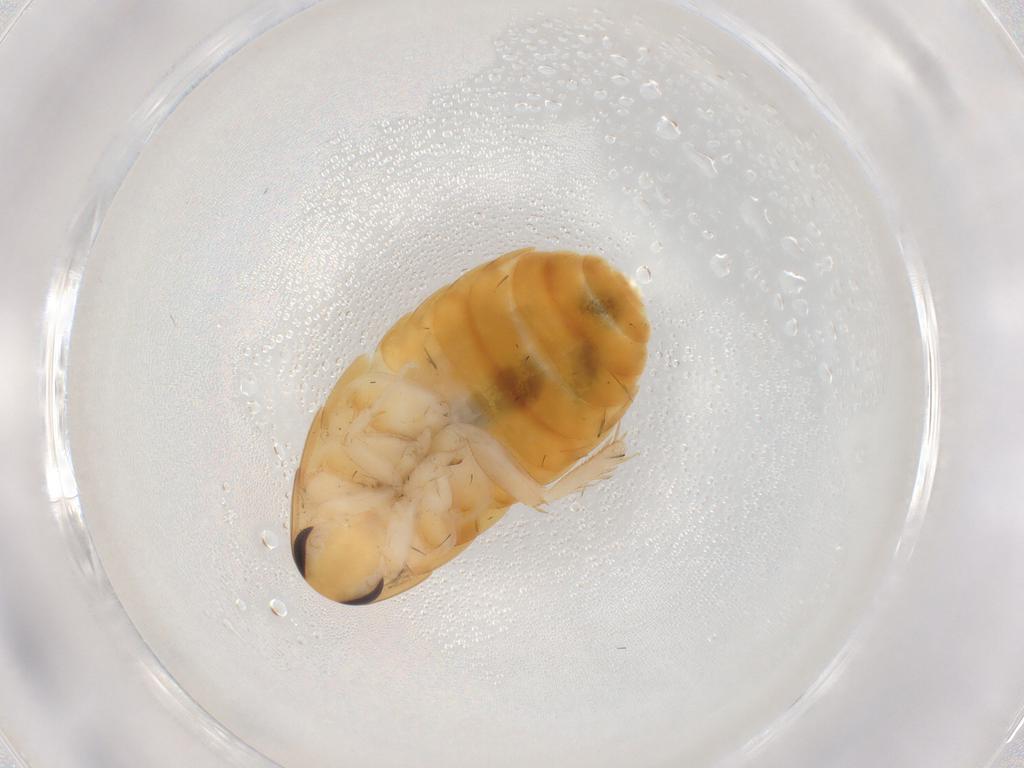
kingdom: Animalia
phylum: Arthropoda
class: Insecta
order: Blattodea
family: Blaberidae
